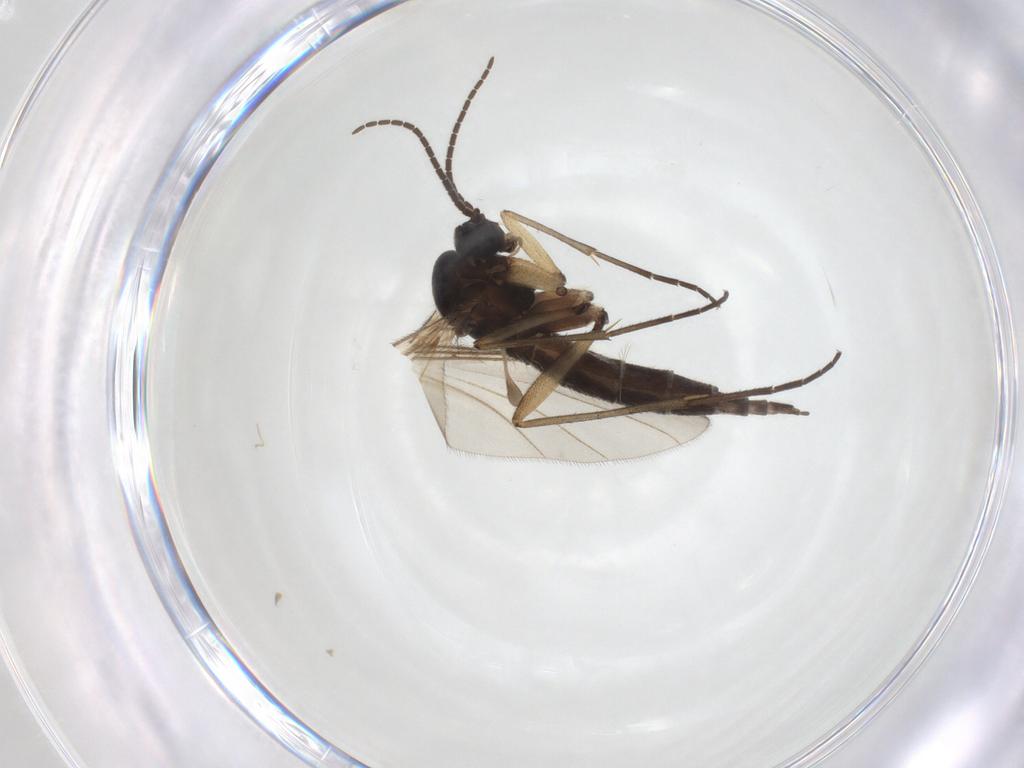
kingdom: Animalia
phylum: Arthropoda
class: Insecta
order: Diptera
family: Sciaridae
